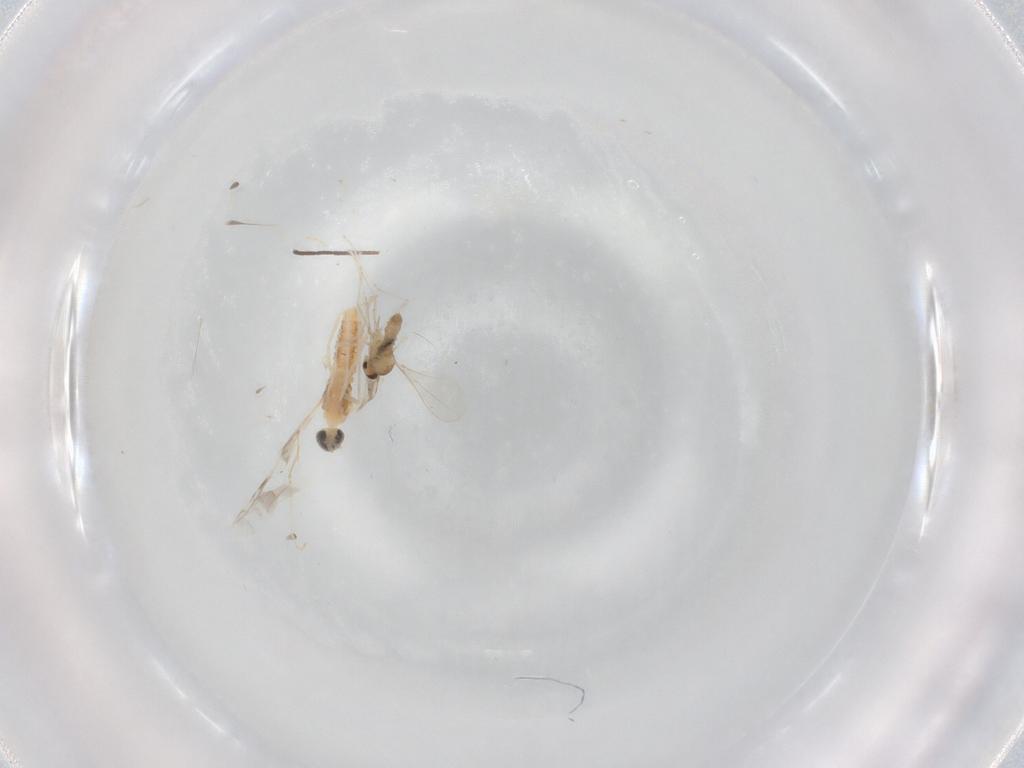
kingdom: Animalia
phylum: Arthropoda
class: Insecta
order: Diptera
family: Cecidomyiidae
